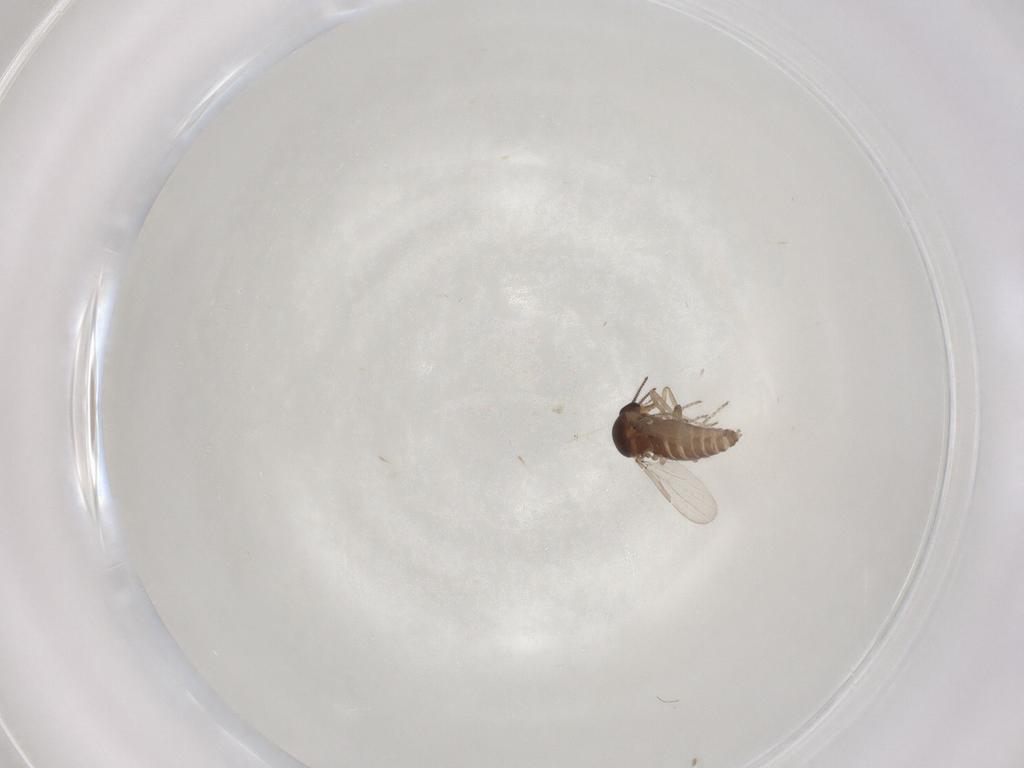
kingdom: Animalia
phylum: Arthropoda
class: Insecta
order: Diptera
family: Ceratopogonidae
